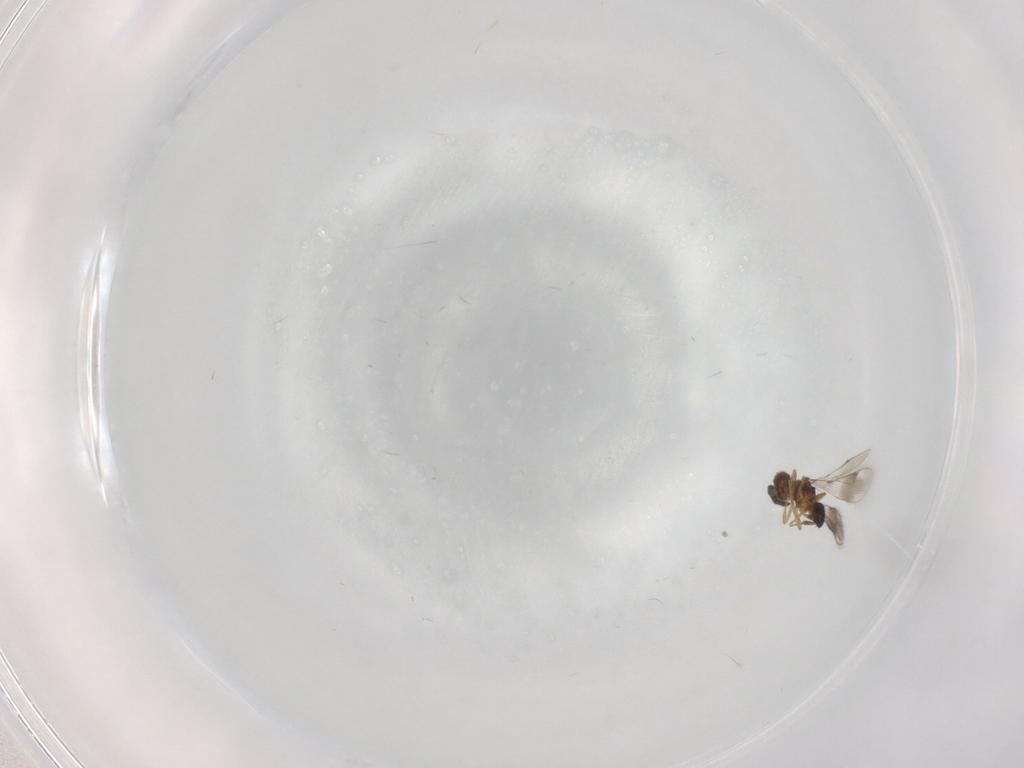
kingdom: Animalia
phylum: Arthropoda
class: Insecta
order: Hymenoptera
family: Pteromalidae
